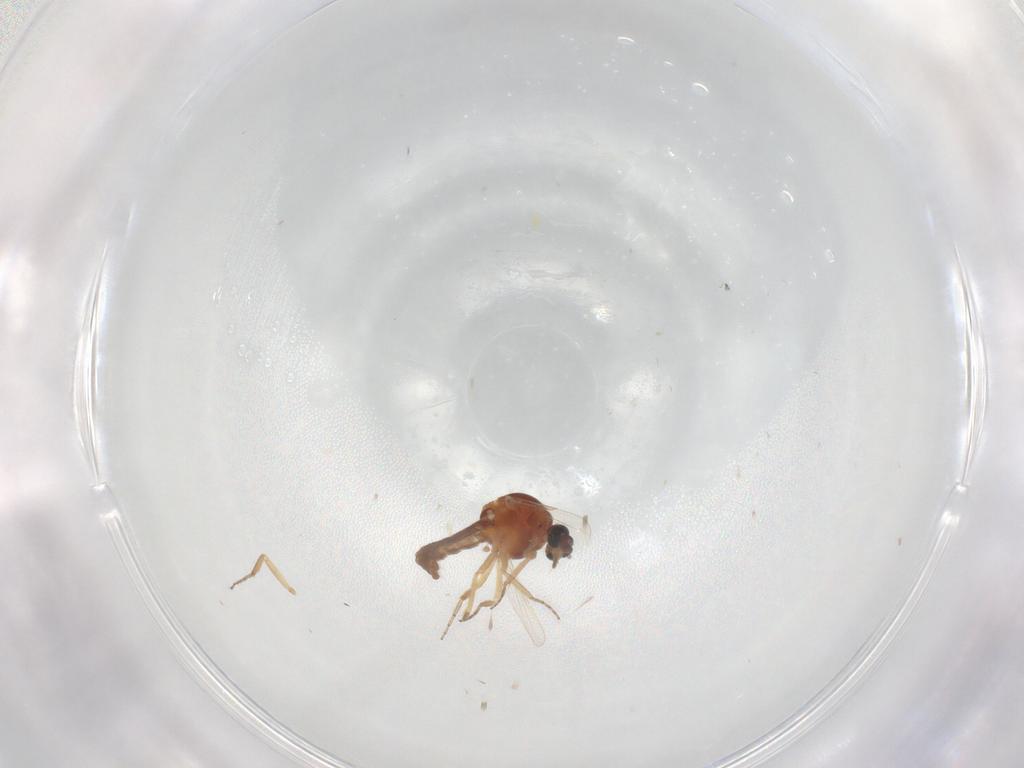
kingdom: Animalia
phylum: Arthropoda
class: Insecta
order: Diptera
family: Ceratopogonidae
